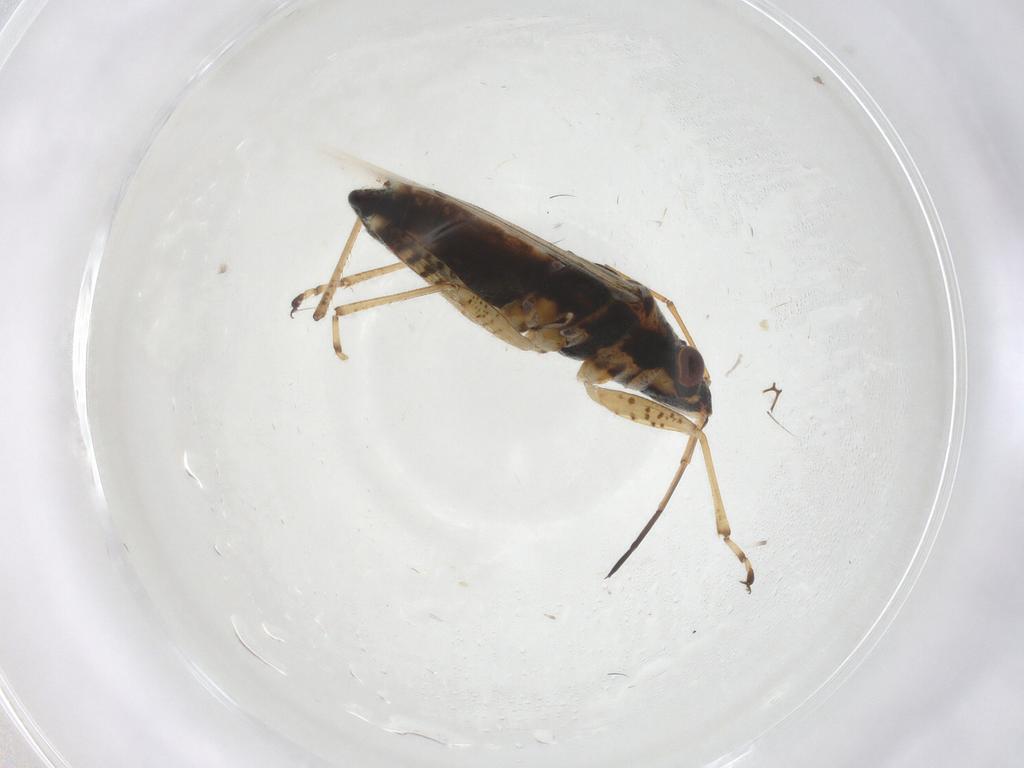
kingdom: Animalia
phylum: Arthropoda
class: Insecta
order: Hemiptera
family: Lygaeidae
